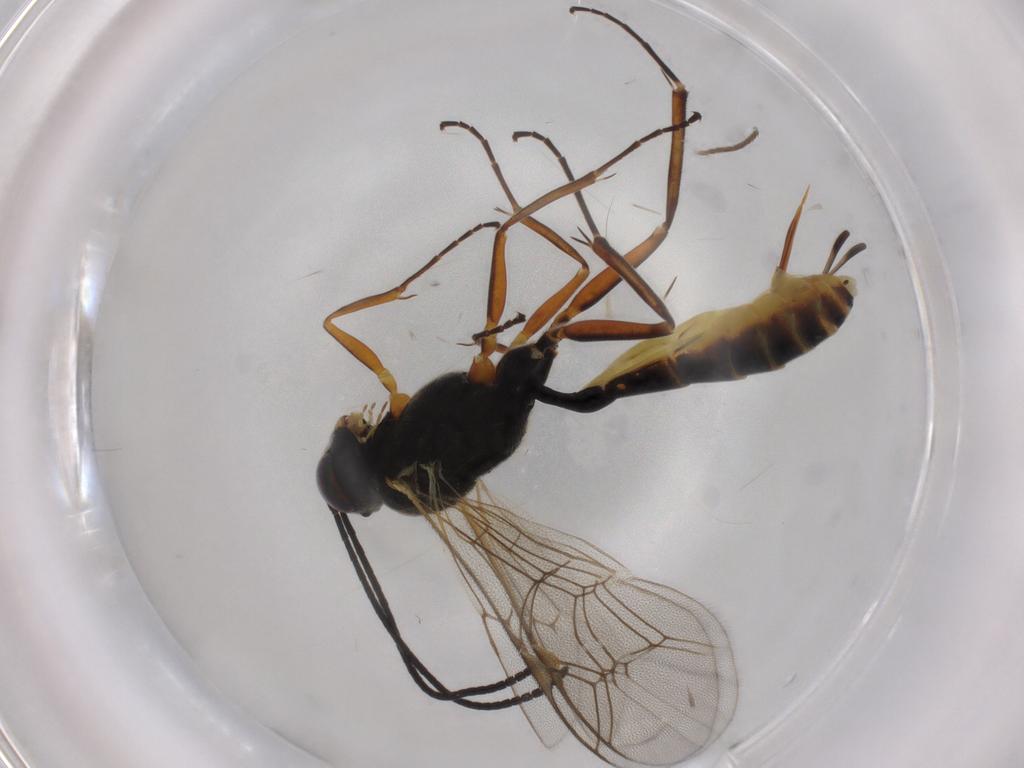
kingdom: Animalia
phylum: Arthropoda
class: Insecta
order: Hymenoptera
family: Ichneumonidae
